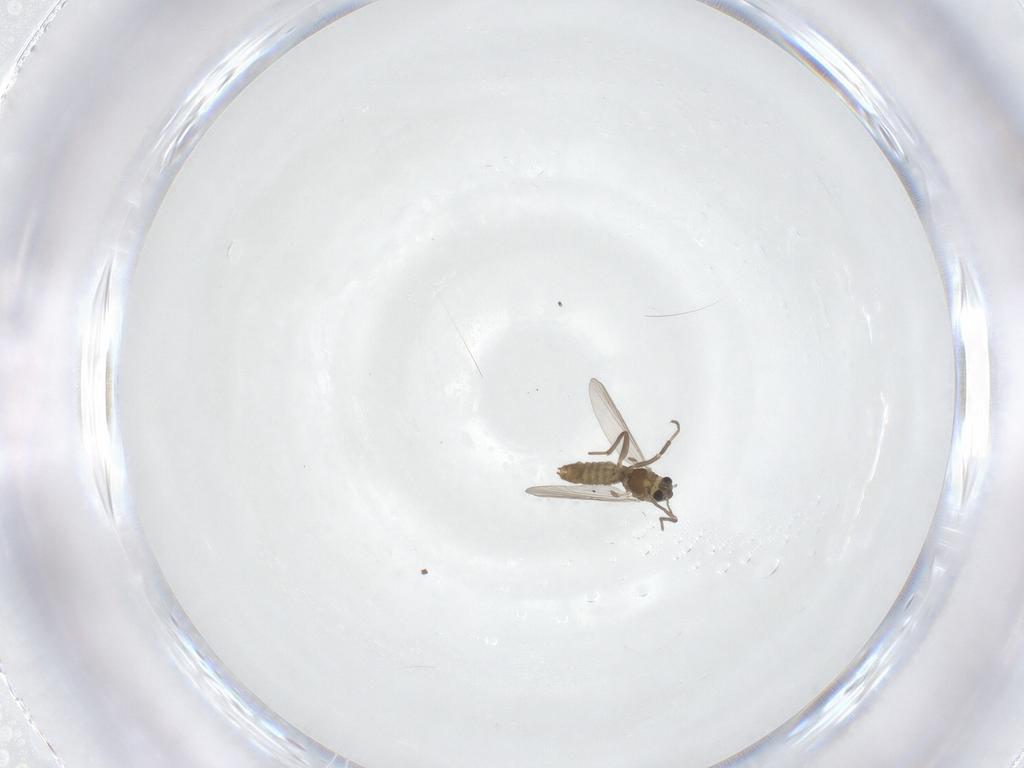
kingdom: Animalia
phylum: Arthropoda
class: Insecta
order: Diptera
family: Chironomidae
